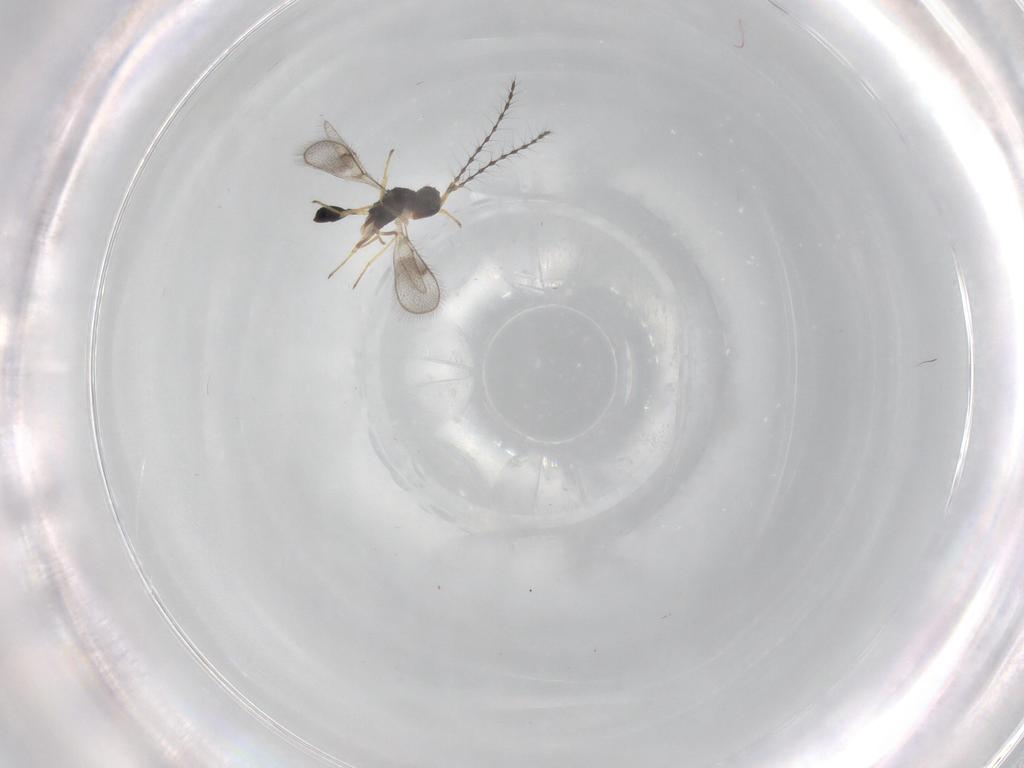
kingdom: Animalia
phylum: Arthropoda
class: Insecta
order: Hymenoptera
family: Diparidae
